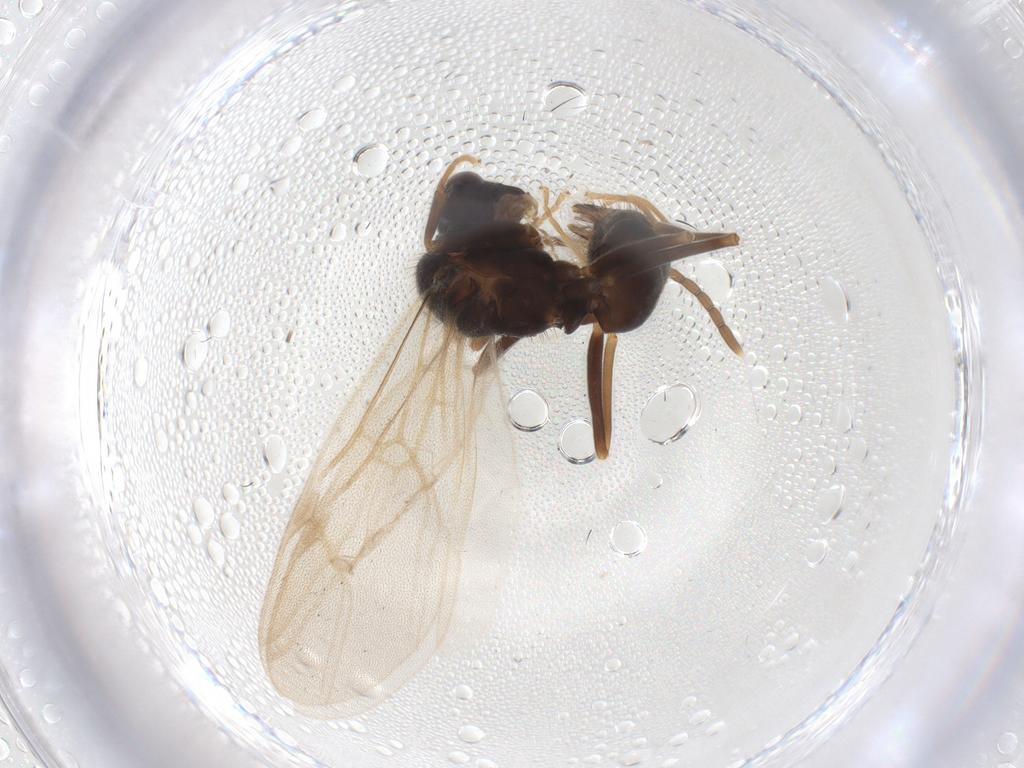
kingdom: Animalia
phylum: Arthropoda
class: Insecta
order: Hymenoptera
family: Formicidae
